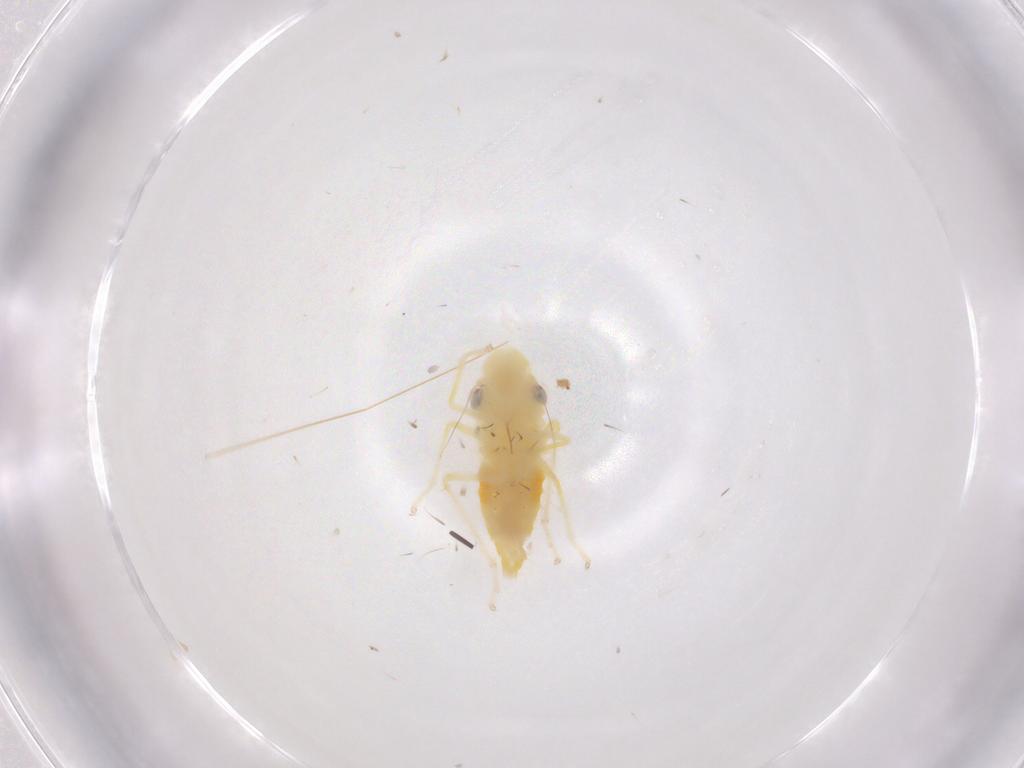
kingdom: Animalia
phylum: Arthropoda
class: Insecta
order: Hemiptera
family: Cicadellidae
